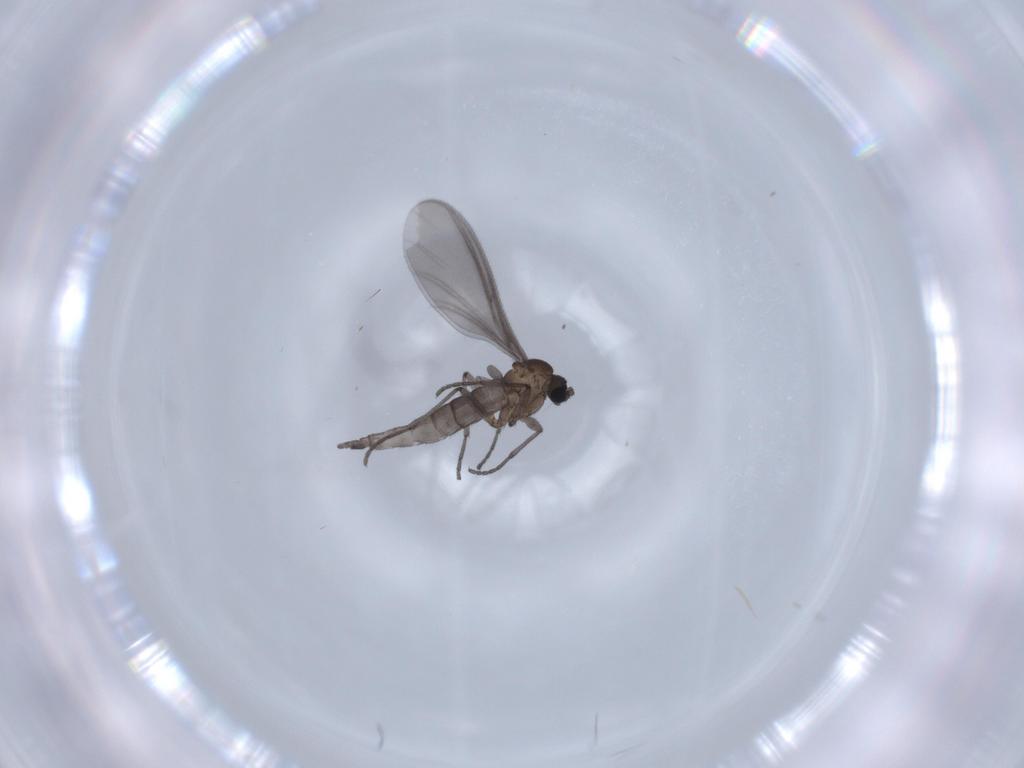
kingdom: Animalia
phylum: Arthropoda
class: Insecta
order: Diptera
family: Sciaridae
